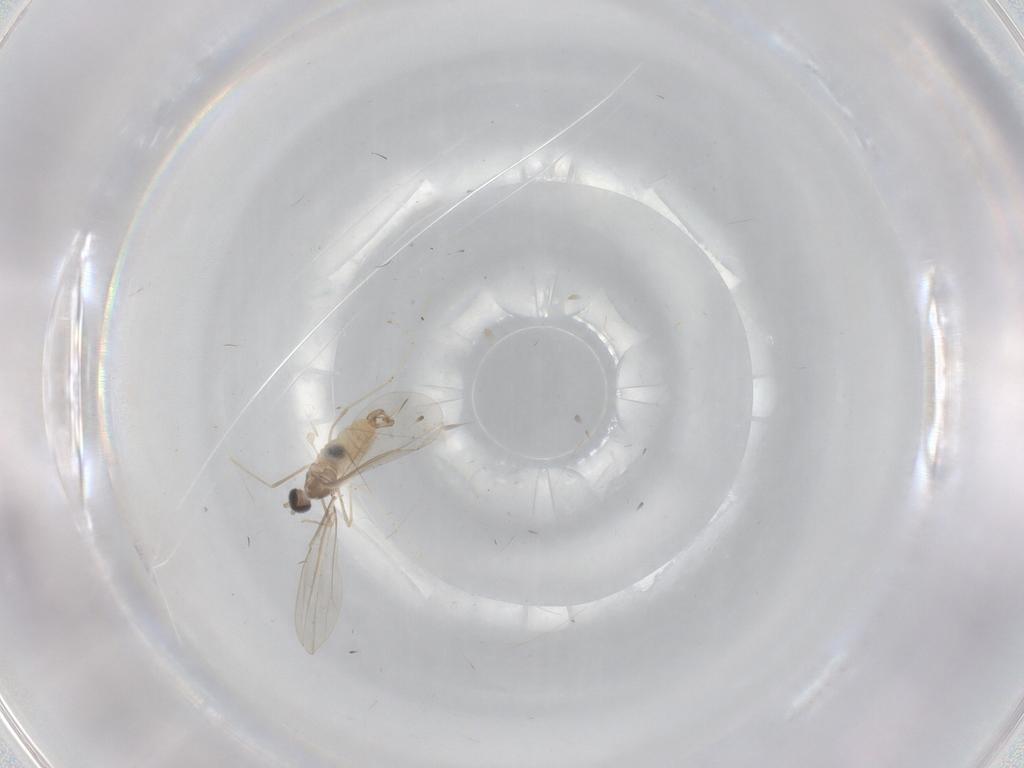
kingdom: Animalia
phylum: Arthropoda
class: Insecta
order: Diptera
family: Cecidomyiidae
